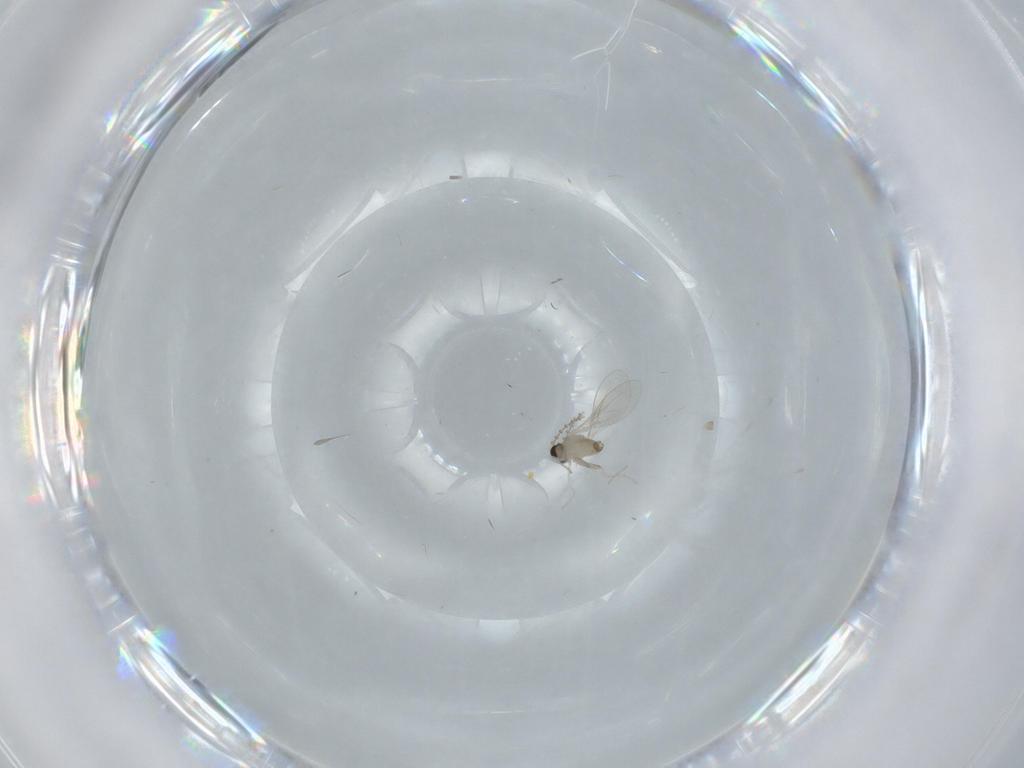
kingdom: Animalia
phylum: Arthropoda
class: Insecta
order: Diptera
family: Cecidomyiidae
